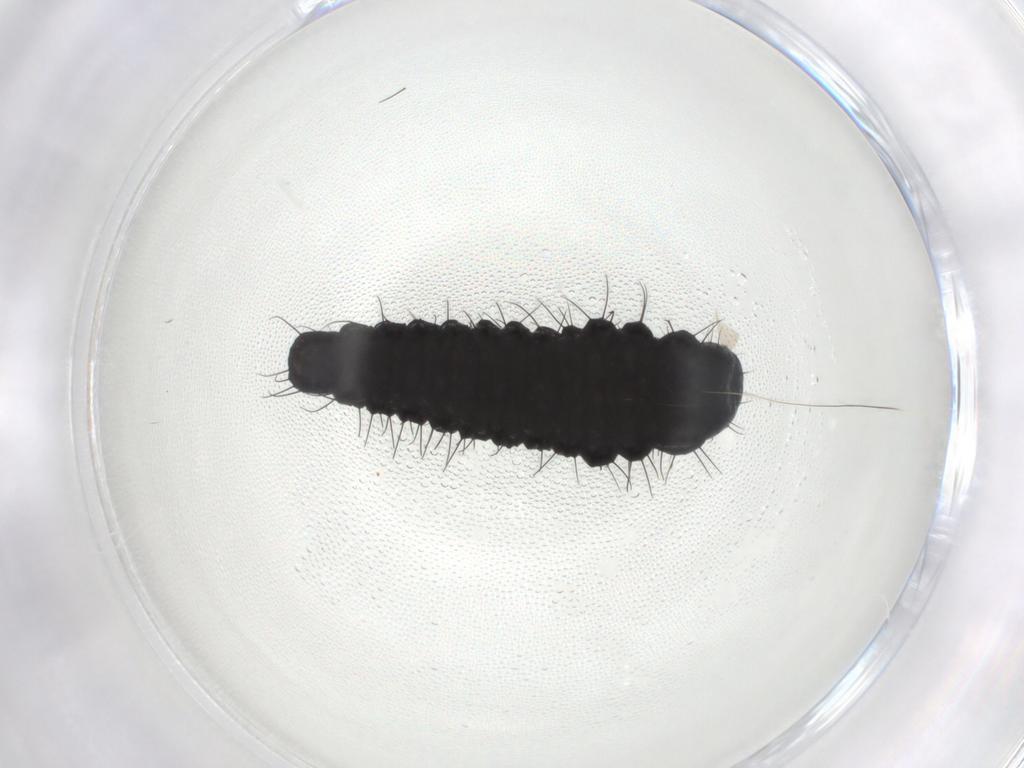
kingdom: Animalia
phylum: Arthropoda
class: Insecta
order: Coleoptera
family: Chrysomelidae
